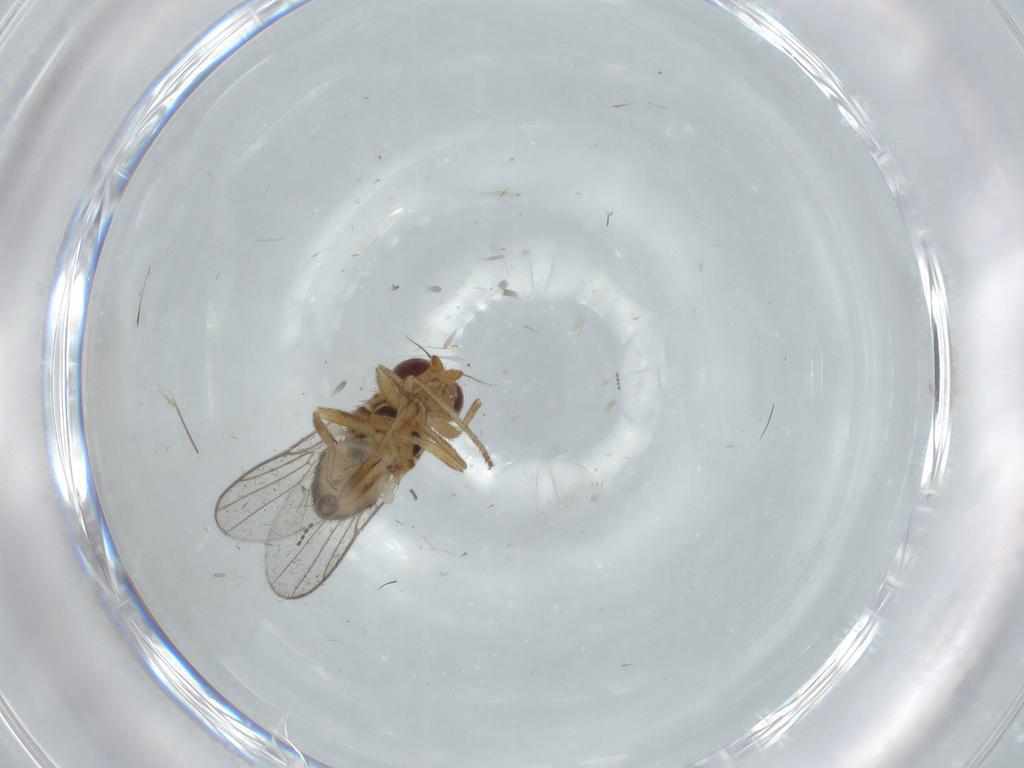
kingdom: Animalia
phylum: Arthropoda
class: Insecta
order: Diptera
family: Chloropidae
